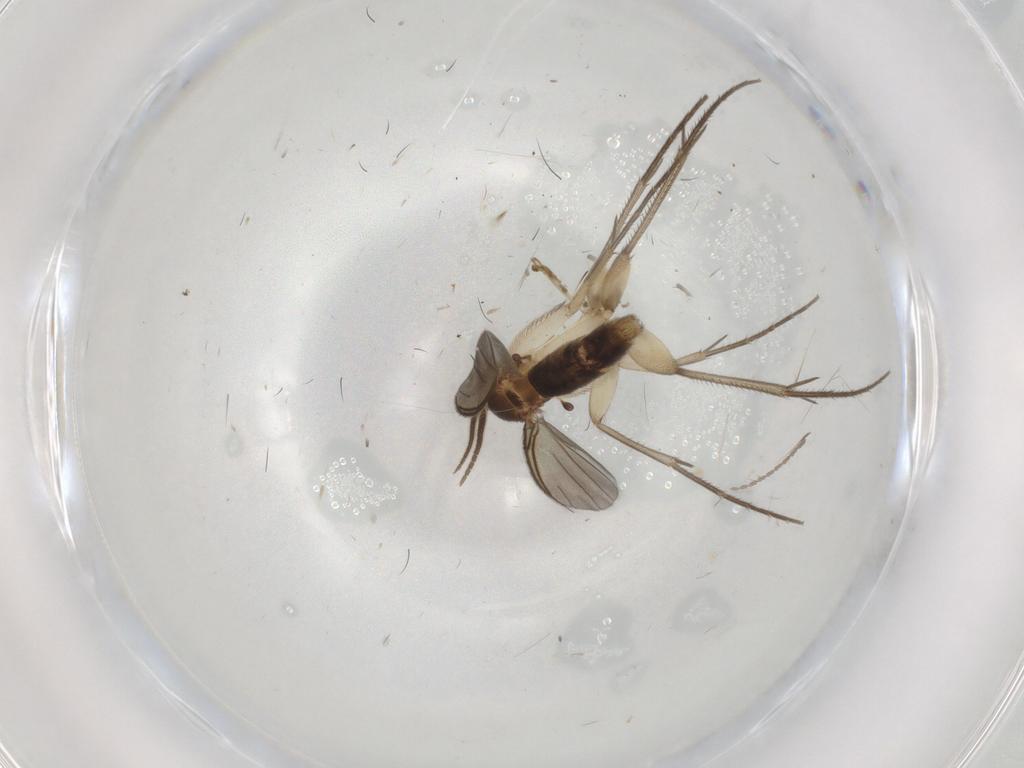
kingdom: Animalia
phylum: Arthropoda
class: Insecta
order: Diptera
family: Mycetophilidae
